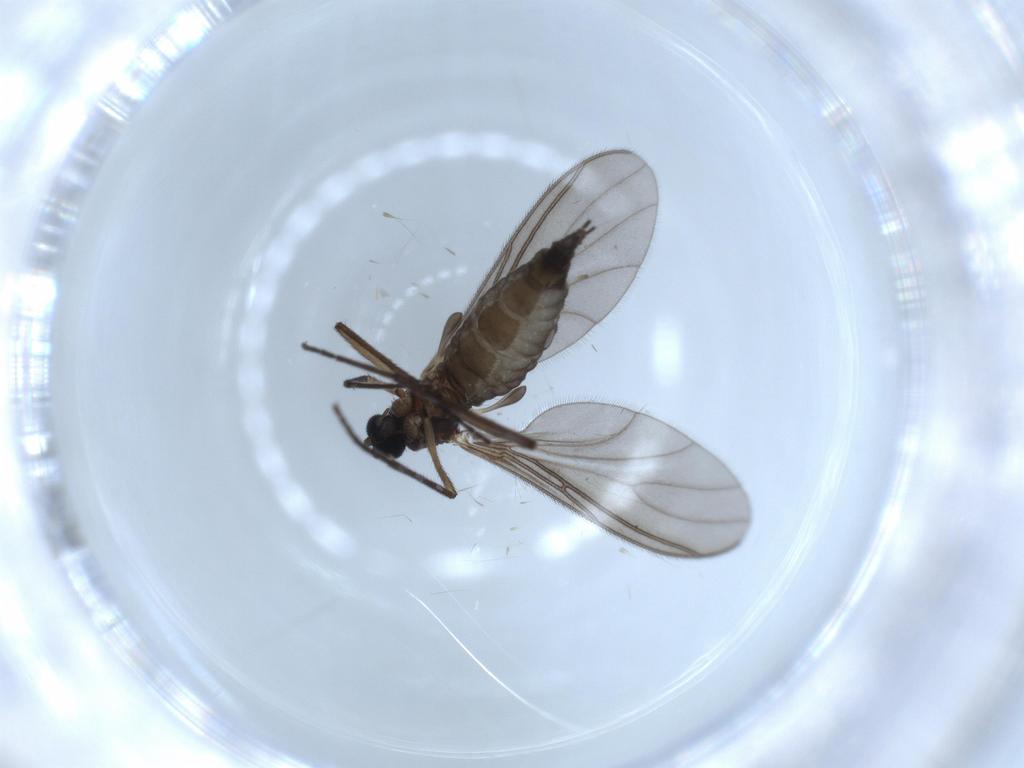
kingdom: Animalia
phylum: Arthropoda
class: Insecta
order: Diptera
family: Sciaridae
